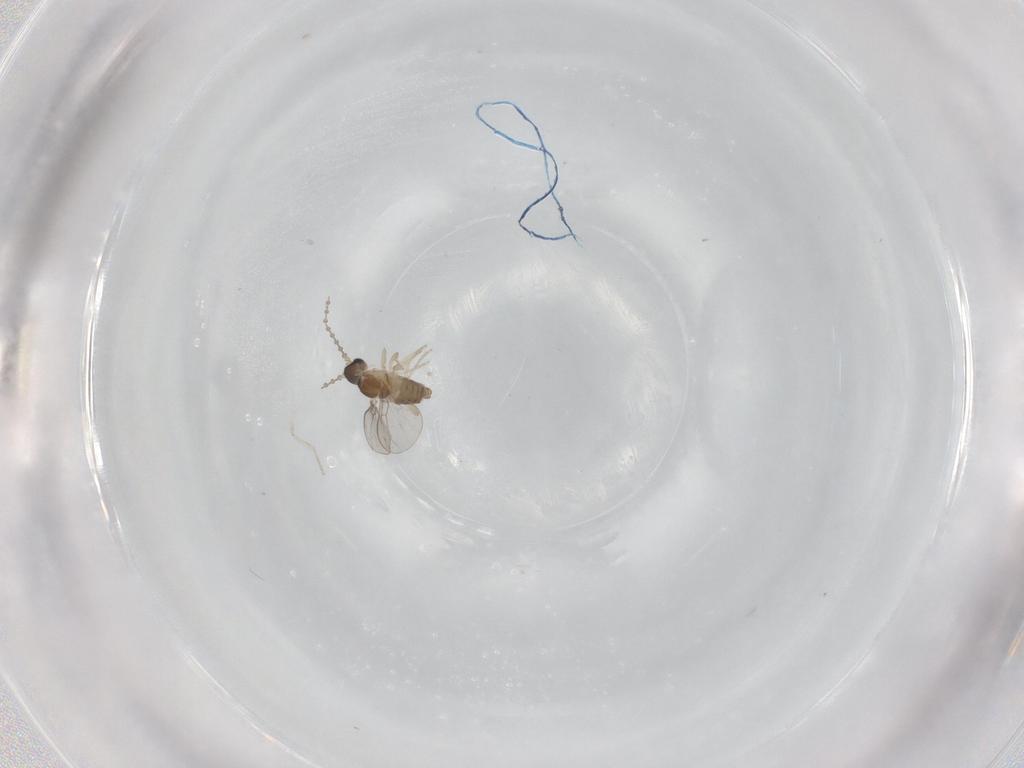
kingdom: Animalia
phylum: Arthropoda
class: Insecta
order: Diptera
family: Cecidomyiidae
